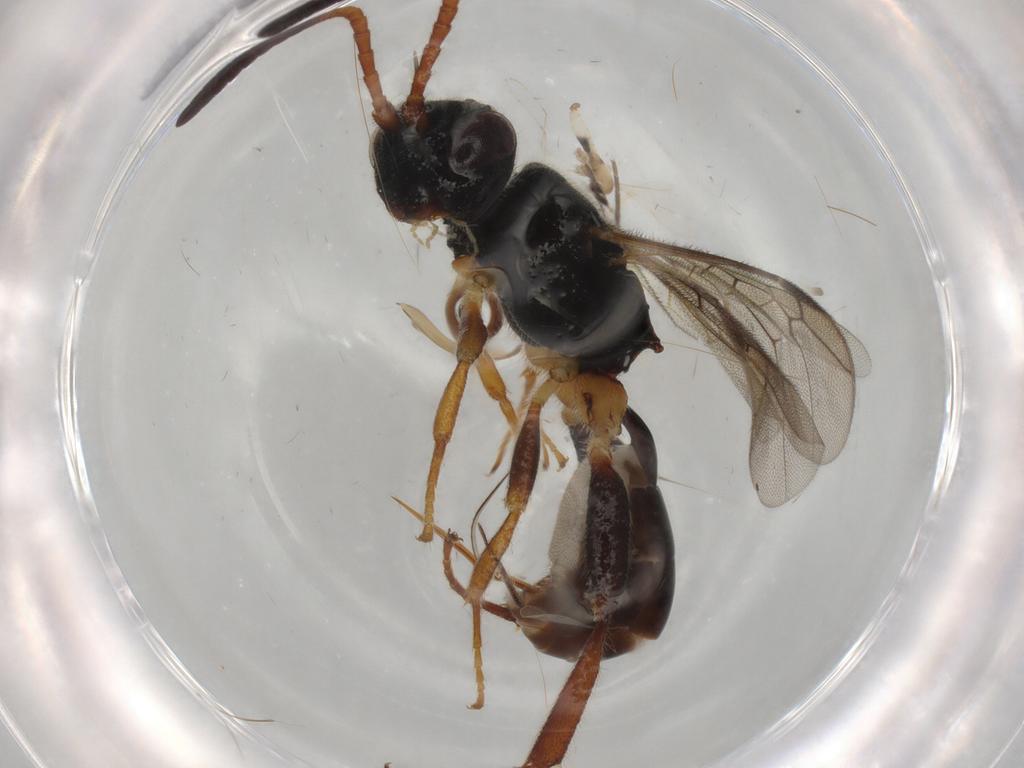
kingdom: Animalia
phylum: Arthropoda
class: Insecta
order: Hymenoptera
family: Ichneumonidae
